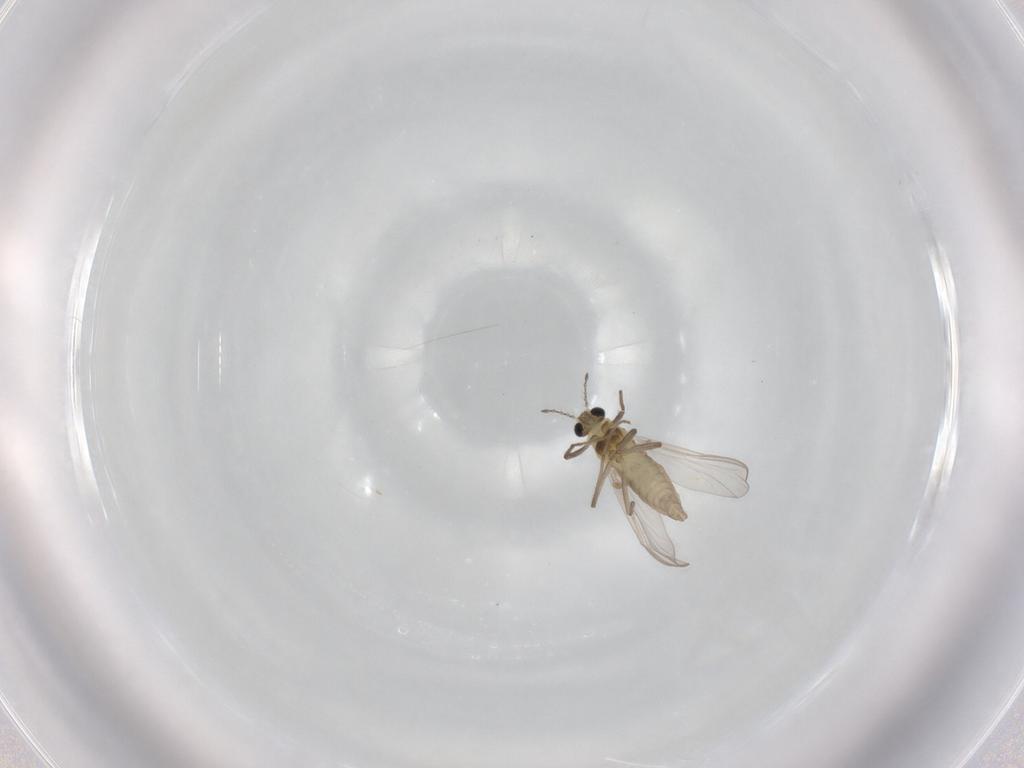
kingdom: Animalia
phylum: Arthropoda
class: Insecta
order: Diptera
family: Chironomidae
